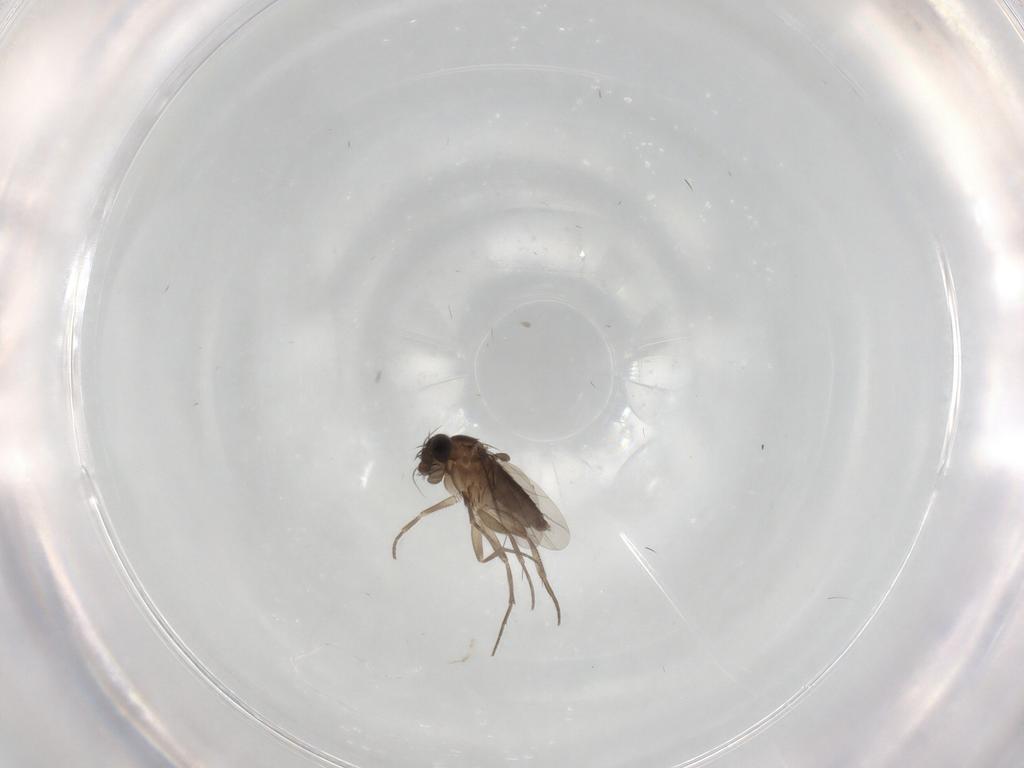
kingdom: Animalia
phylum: Arthropoda
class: Insecta
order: Diptera
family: Phoridae
